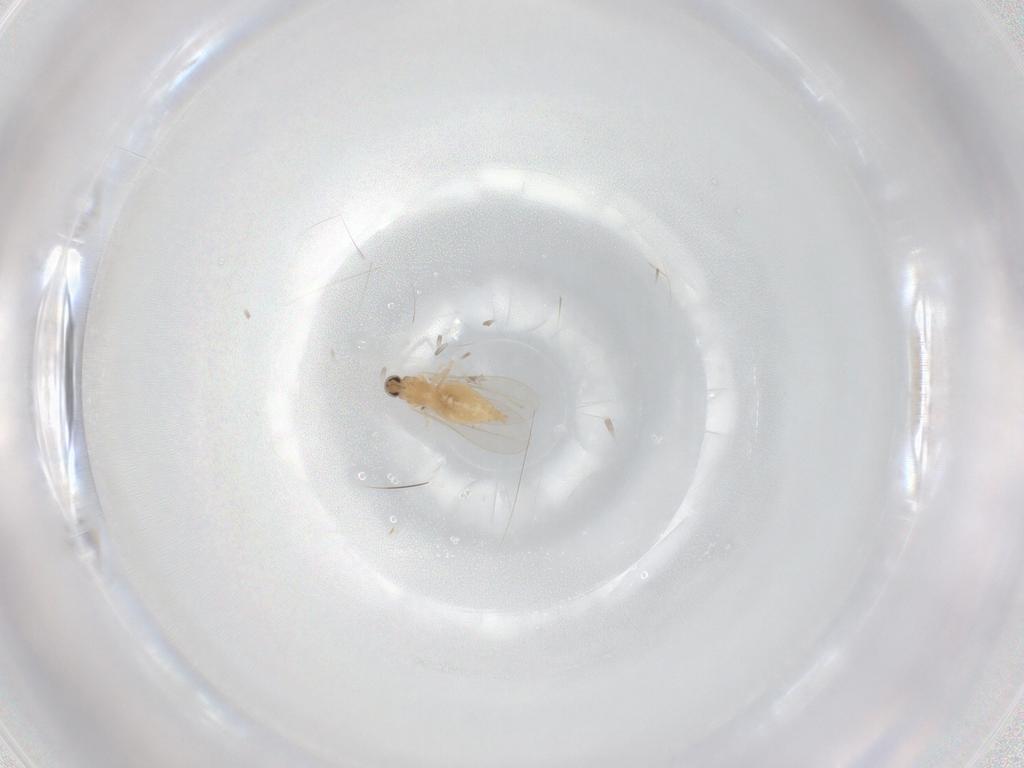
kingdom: Animalia
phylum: Arthropoda
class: Insecta
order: Diptera
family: Cecidomyiidae
